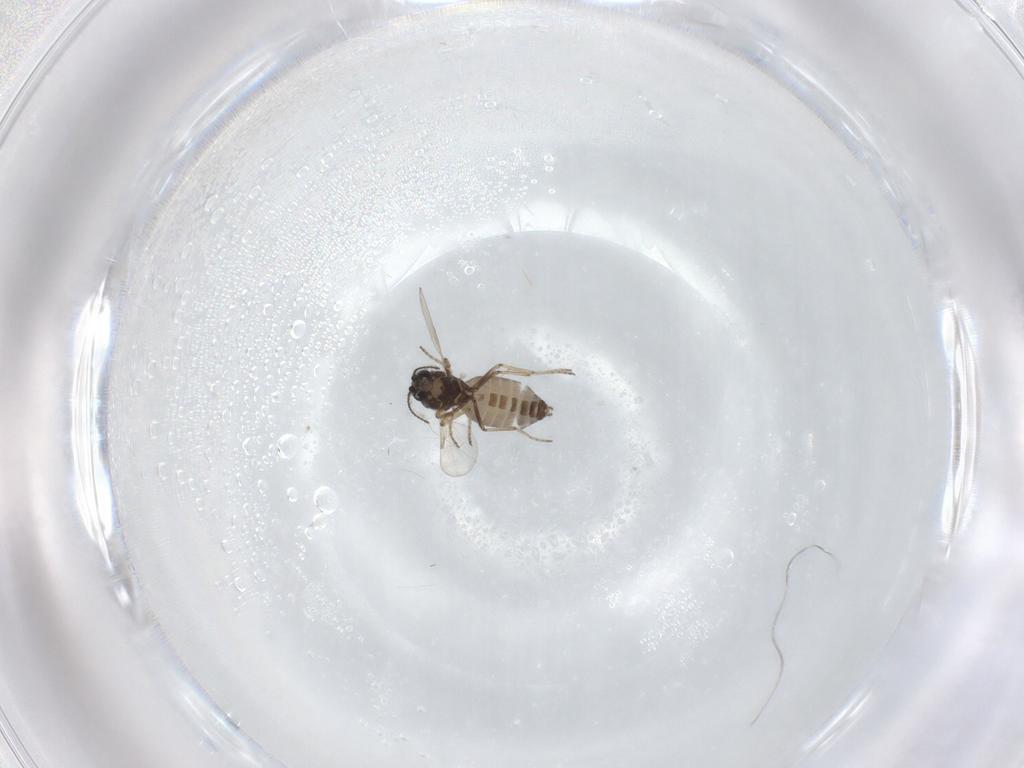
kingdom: Animalia
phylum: Arthropoda
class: Insecta
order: Diptera
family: Ceratopogonidae
